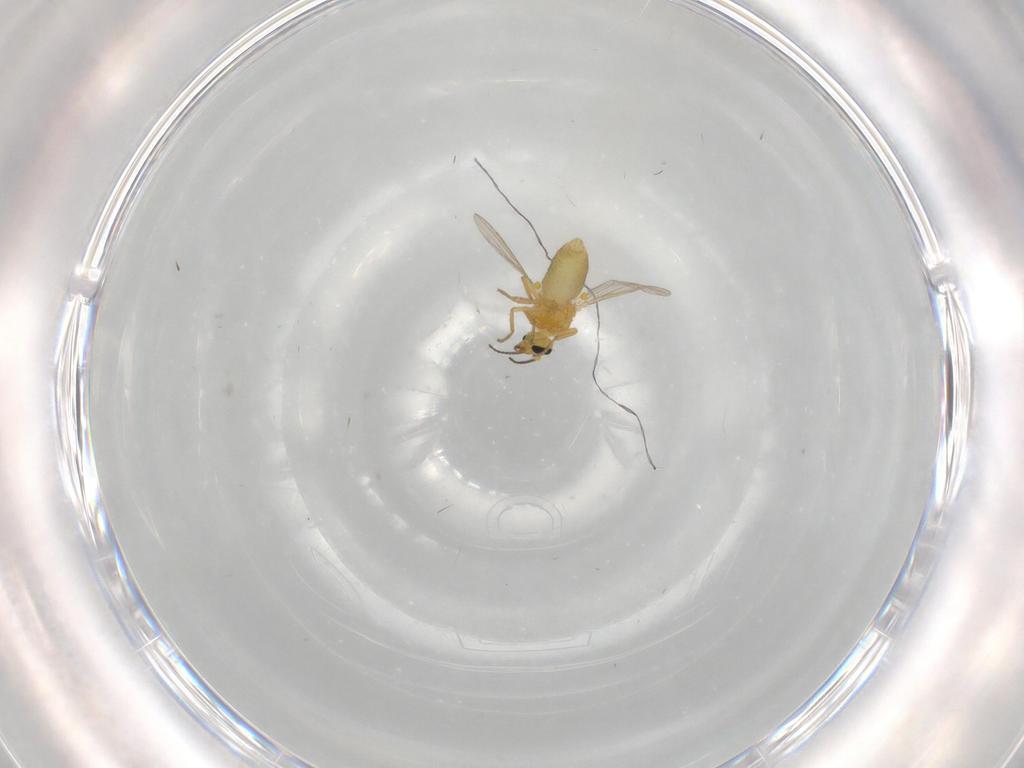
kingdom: Animalia
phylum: Arthropoda
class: Insecta
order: Diptera
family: Ceratopogonidae
